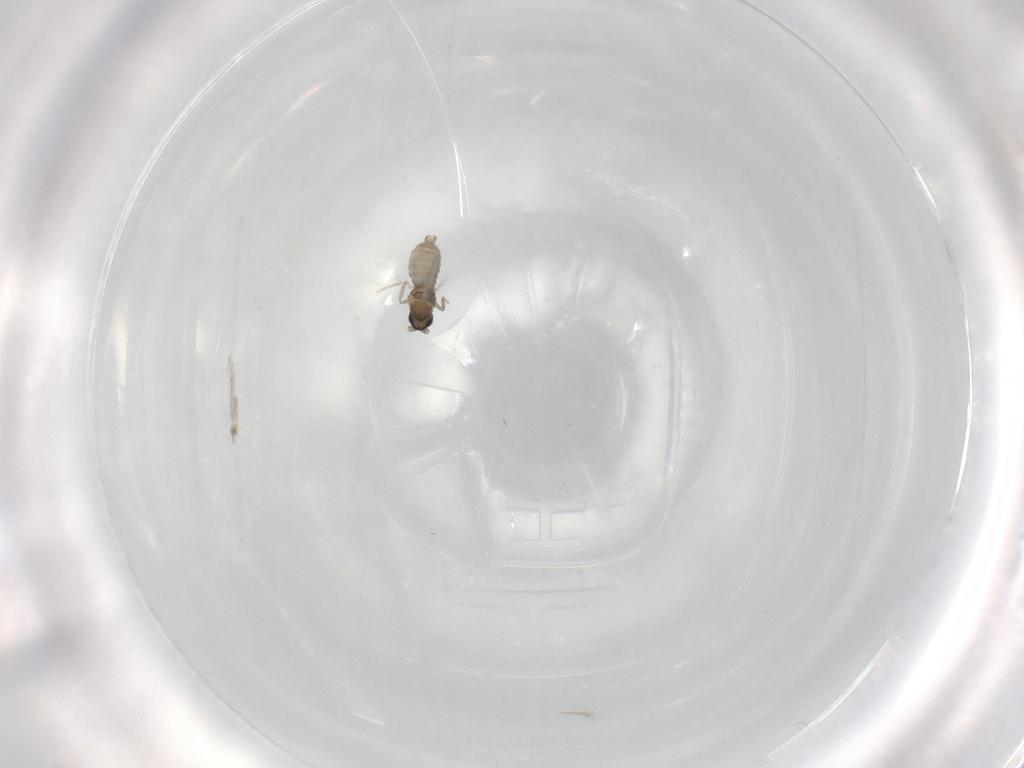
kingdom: Animalia
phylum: Arthropoda
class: Insecta
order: Diptera
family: Cecidomyiidae
